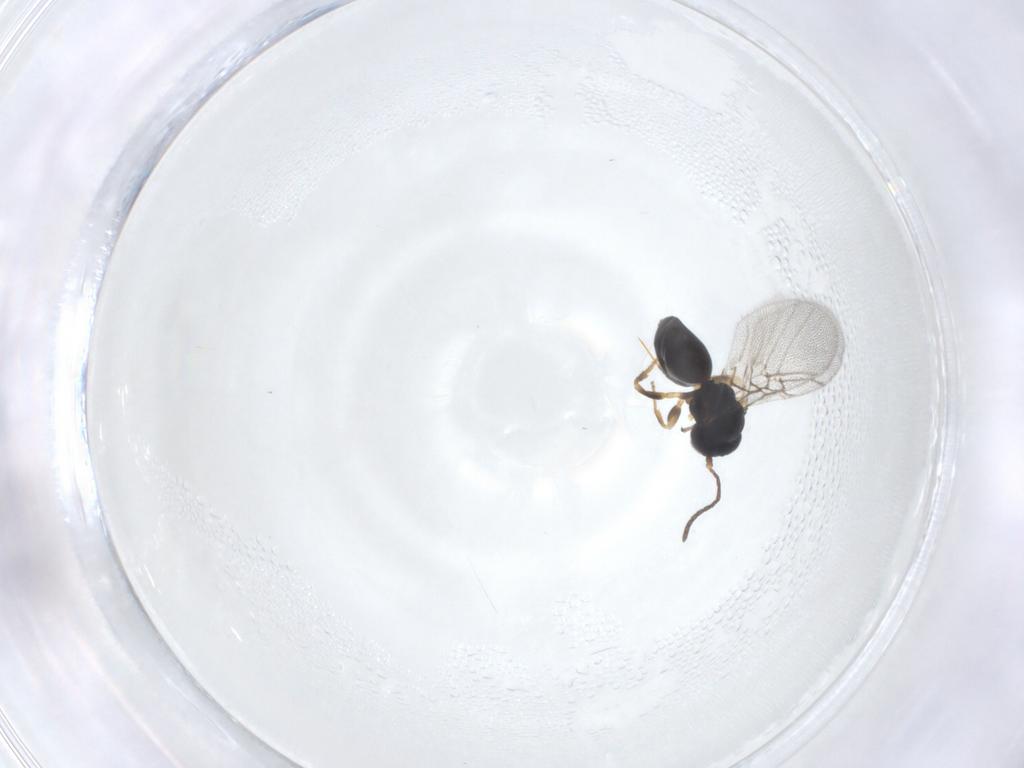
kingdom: Animalia
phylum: Arthropoda
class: Insecta
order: Hymenoptera
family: Cynipidae
